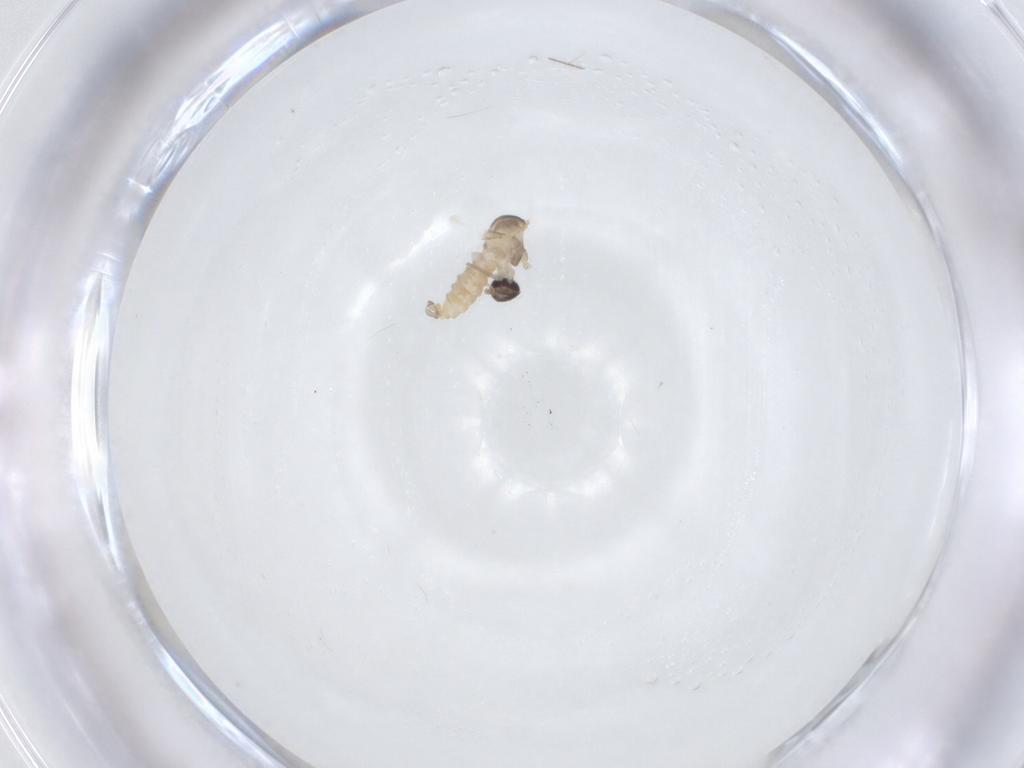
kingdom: Animalia
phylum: Arthropoda
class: Insecta
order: Diptera
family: Cecidomyiidae
